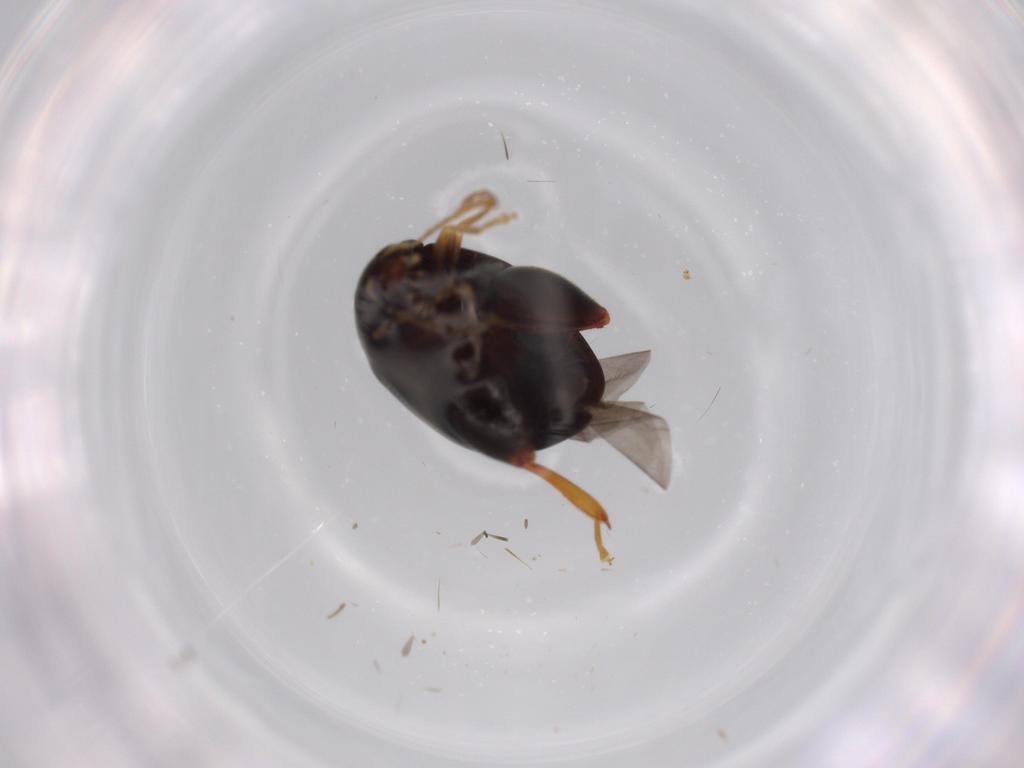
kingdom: Animalia
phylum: Arthropoda
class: Insecta
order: Coleoptera
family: Chrysomelidae
